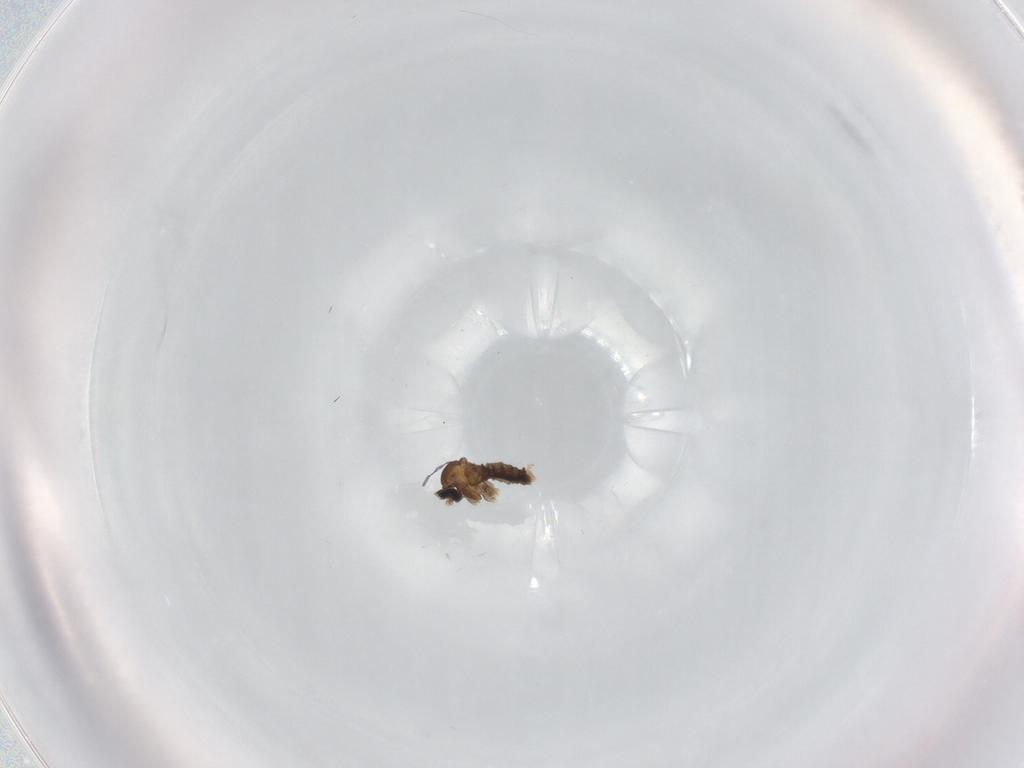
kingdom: Animalia
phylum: Arthropoda
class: Insecta
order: Diptera
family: Cecidomyiidae
